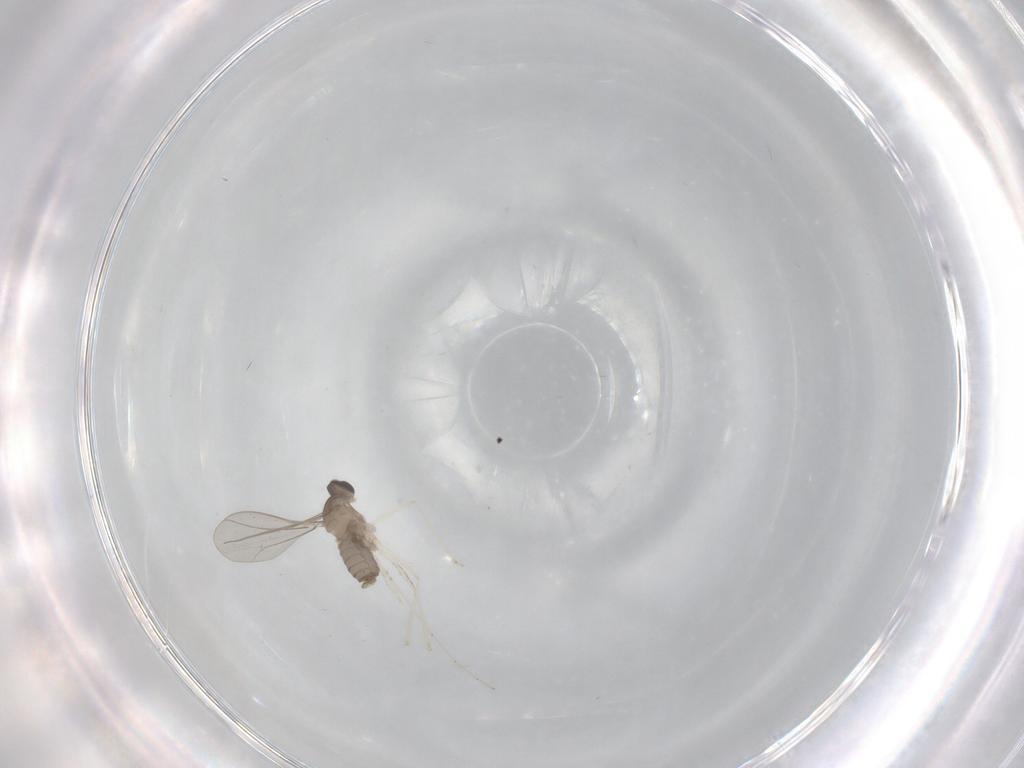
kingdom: Animalia
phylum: Arthropoda
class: Insecta
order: Diptera
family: Cecidomyiidae
